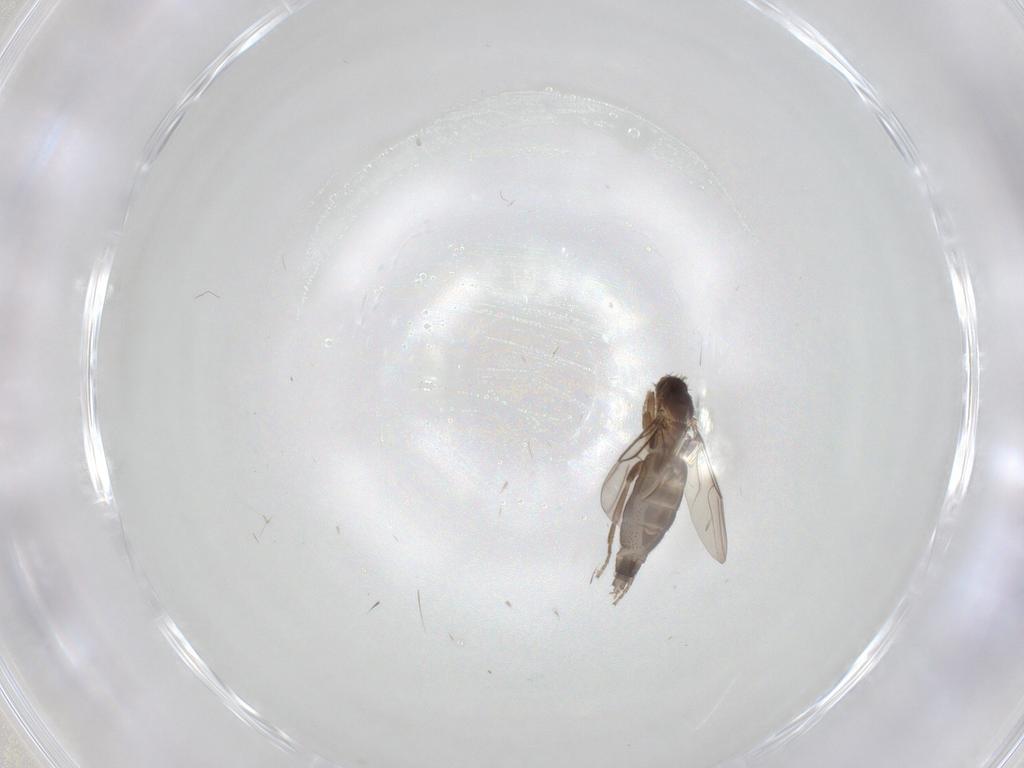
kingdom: Animalia
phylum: Arthropoda
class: Insecta
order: Diptera
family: Phoridae
